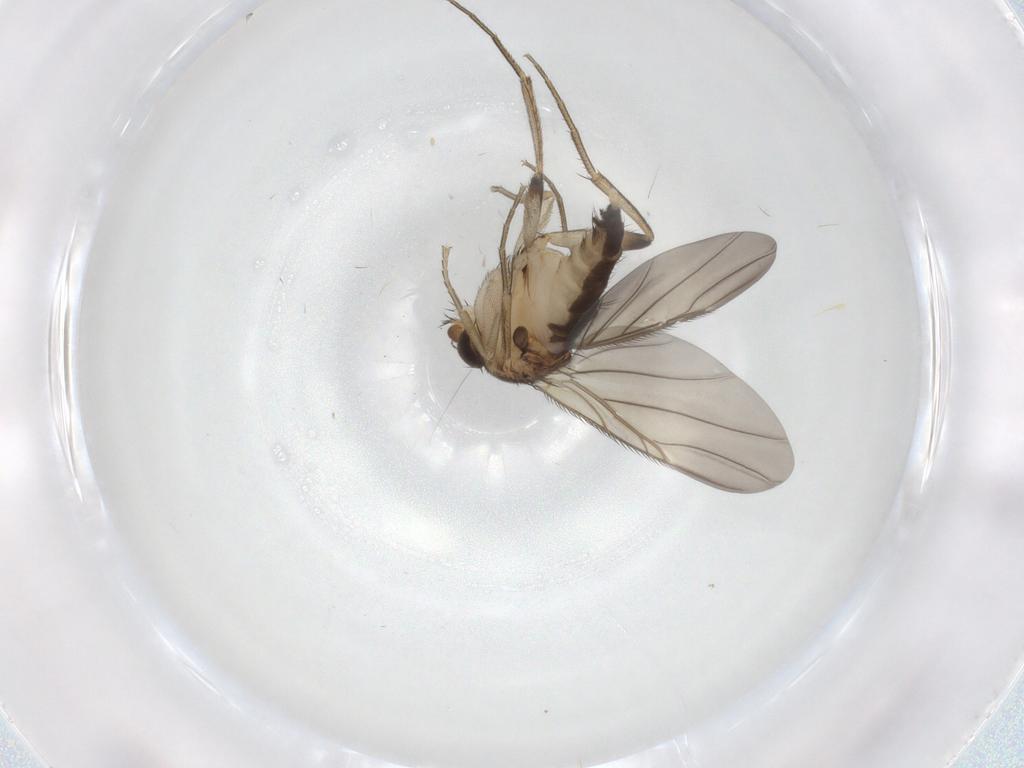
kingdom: Animalia
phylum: Arthropoda
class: Insecta
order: Diptera
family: Phoridae
